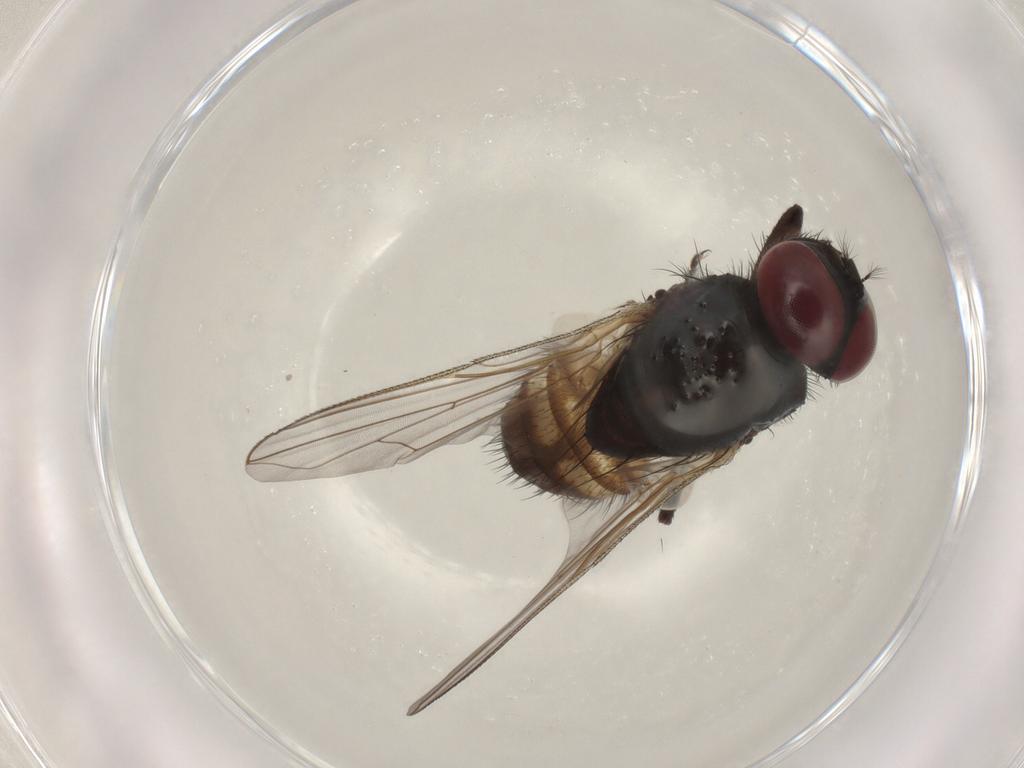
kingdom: Animalia
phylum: Arthropoda
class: Insecta
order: Diptera
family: Muscidae
